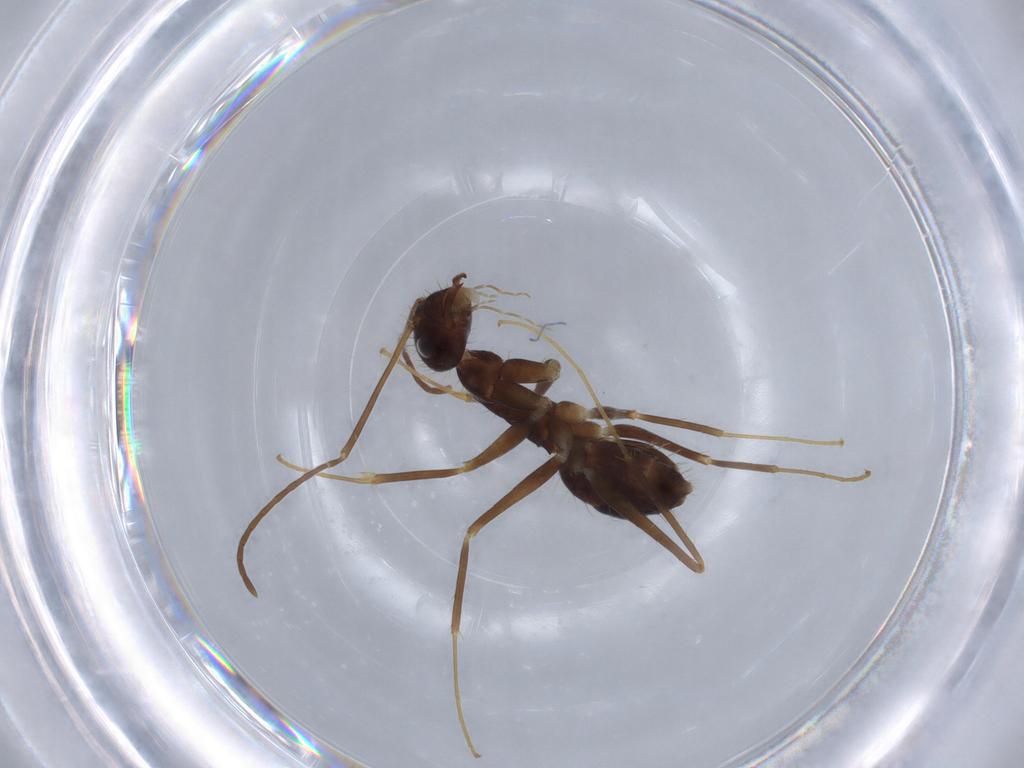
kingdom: Animalia
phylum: Arthropoda
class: Insecta
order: Hymenoptera
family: Formicidae
